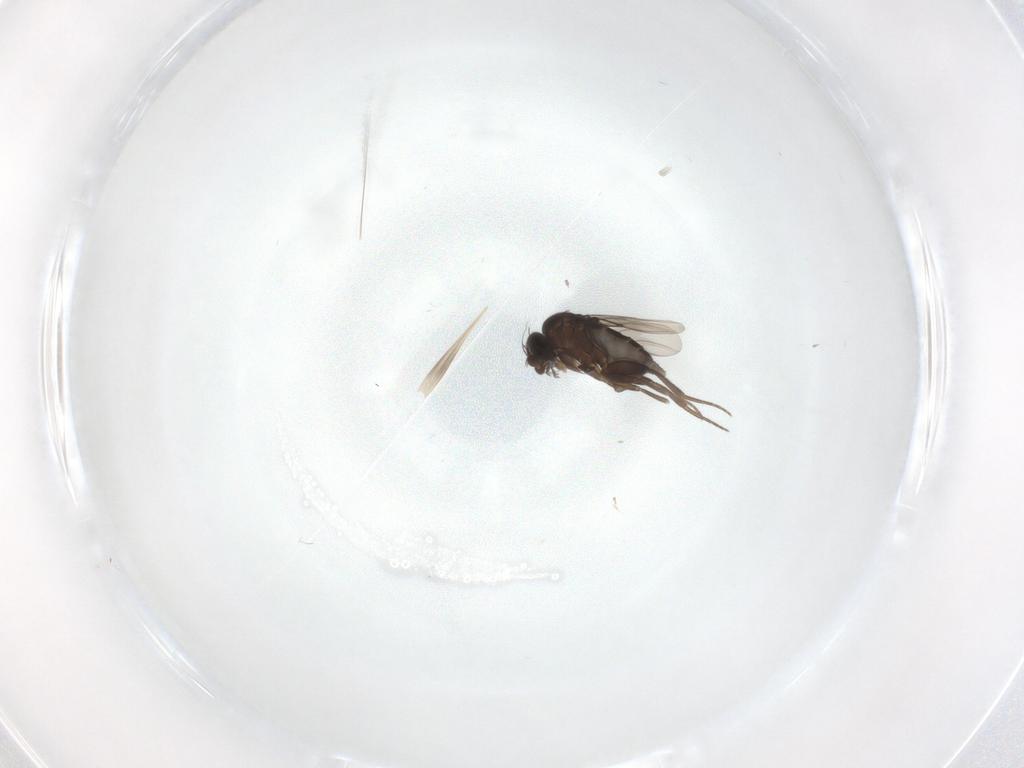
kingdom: Animalia
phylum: Arthropoda
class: Insecta
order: Diptera
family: Phoridae
